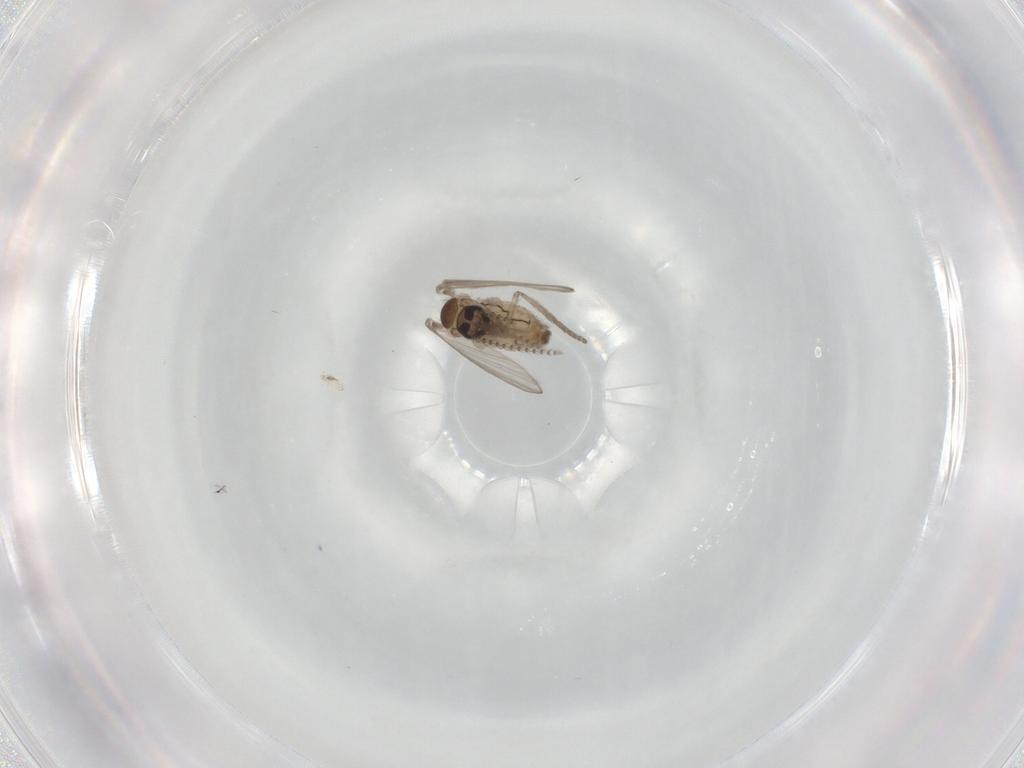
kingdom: Animalia
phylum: Arthropoda
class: Insecta
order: Diptera
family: Psychodidae
